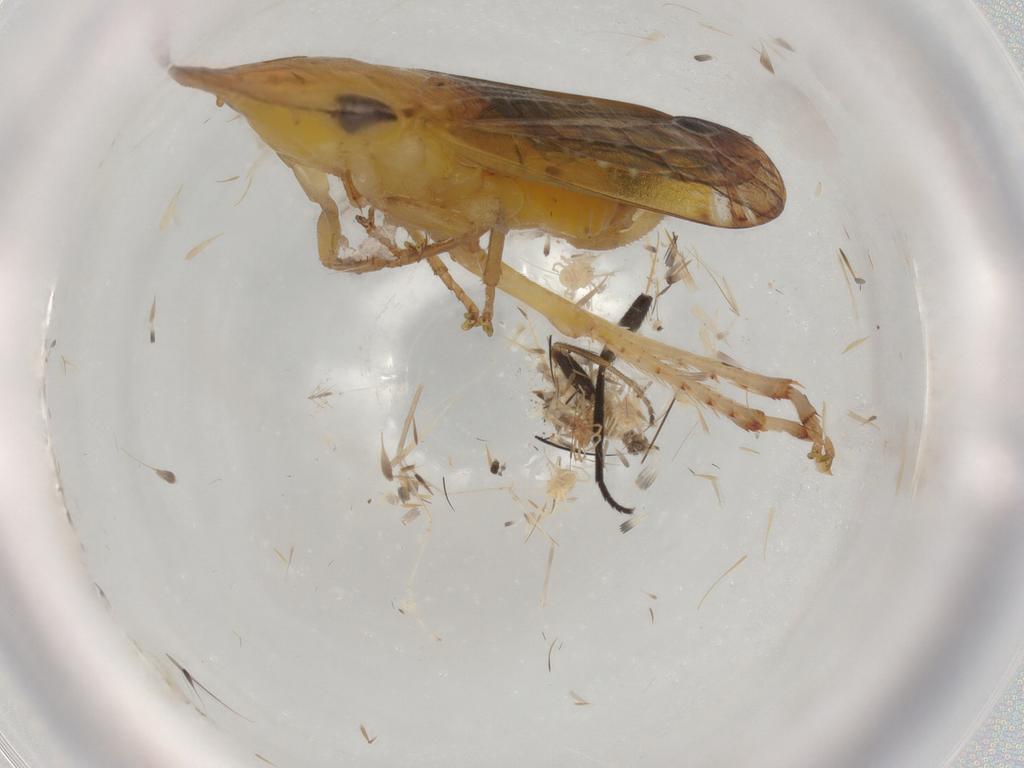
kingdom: Animalia
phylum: Arthropoda
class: Insecta
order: Hemiptera
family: Cicadellidae
